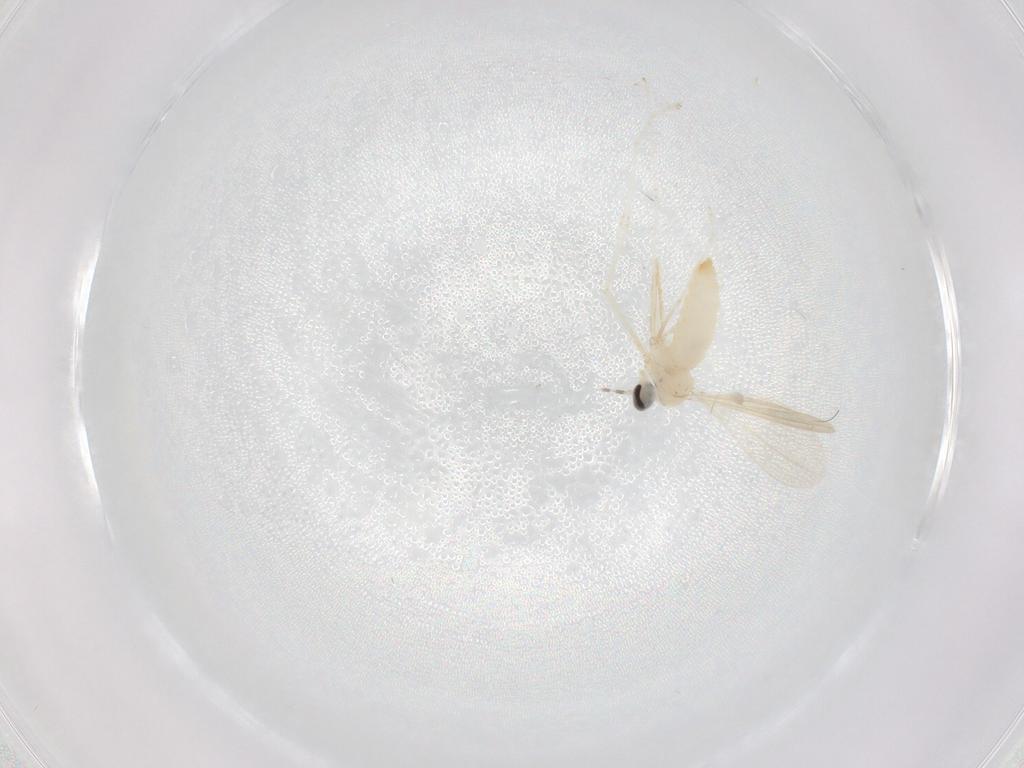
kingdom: Animalia
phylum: Arthropoda
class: Insecta
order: Diptera
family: Cecidomyiidae
